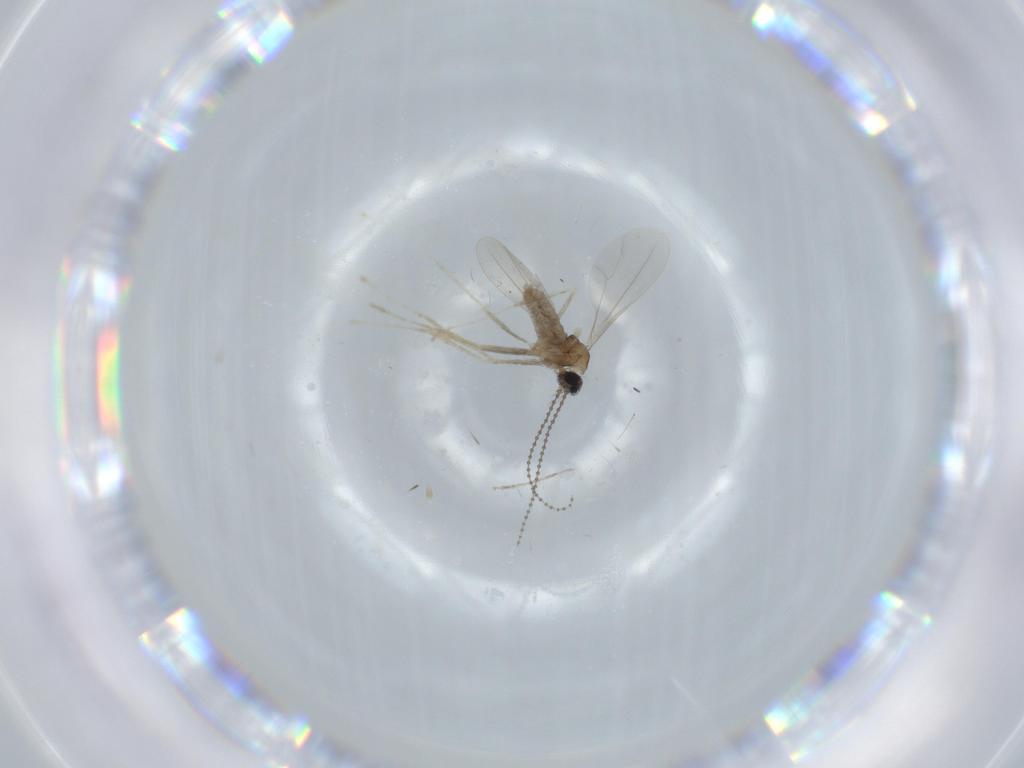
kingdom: Animalia
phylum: Arthropoda
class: Insecta
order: Diptera
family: Cecidomyiidae
